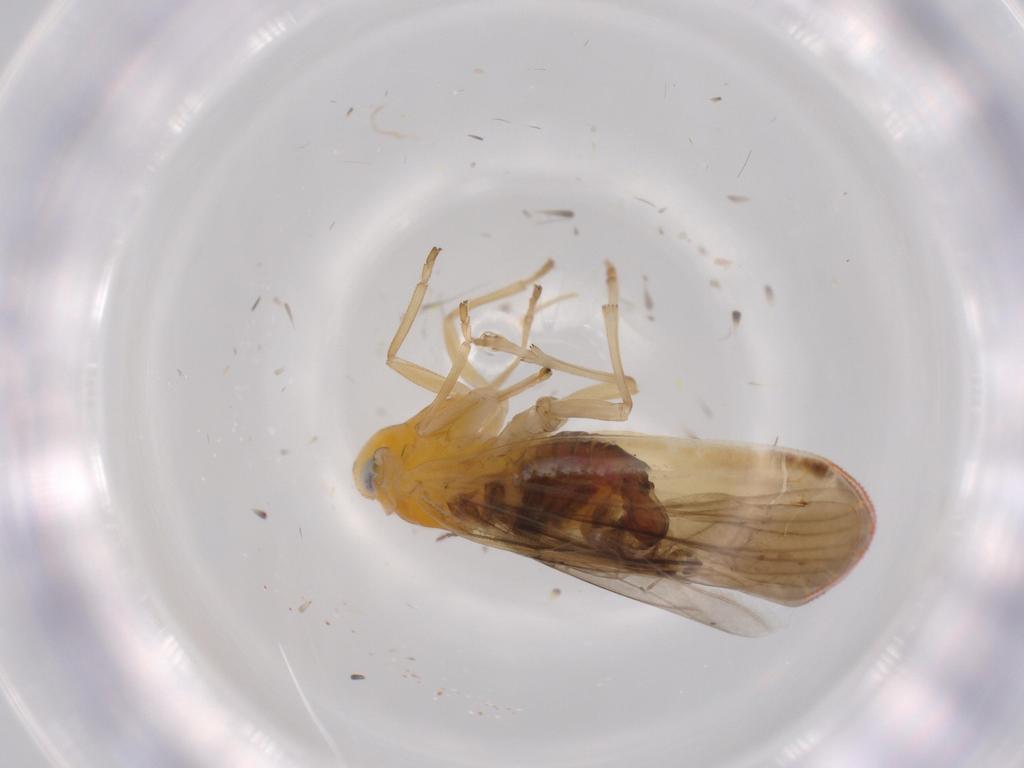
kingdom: Animalia
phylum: Arthropoda
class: Insecta
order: Hemiptera
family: Derbidae
